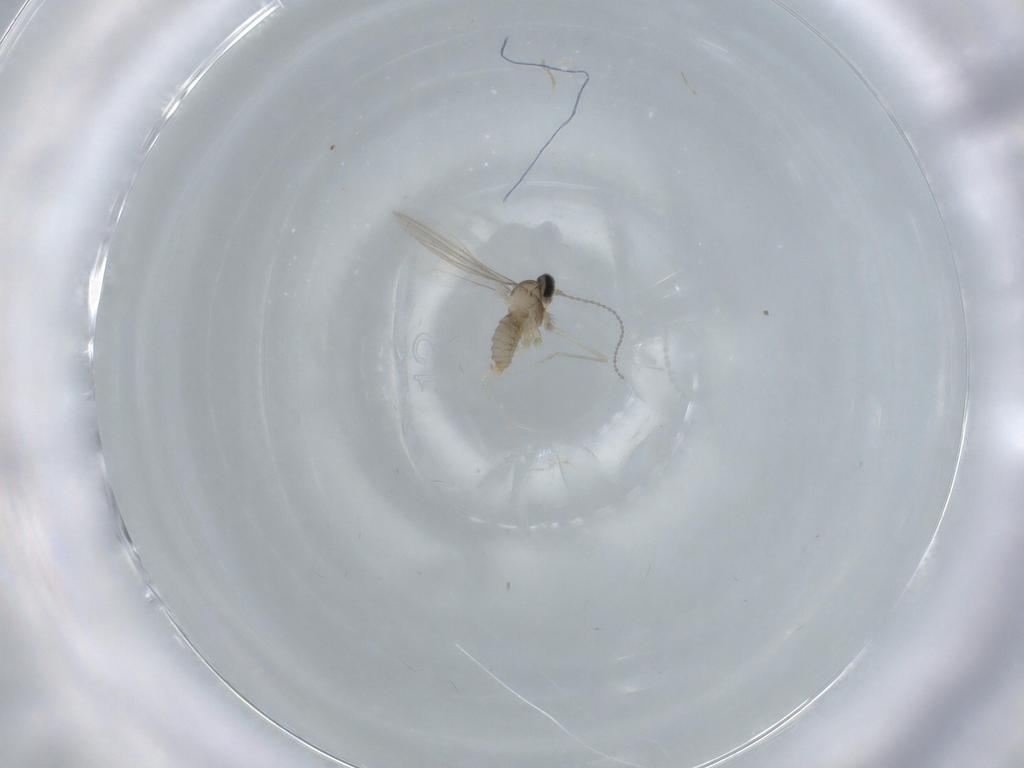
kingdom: Animalia
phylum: Arthropoda
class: Insecta
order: Diptera
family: Cecidomyiidae
